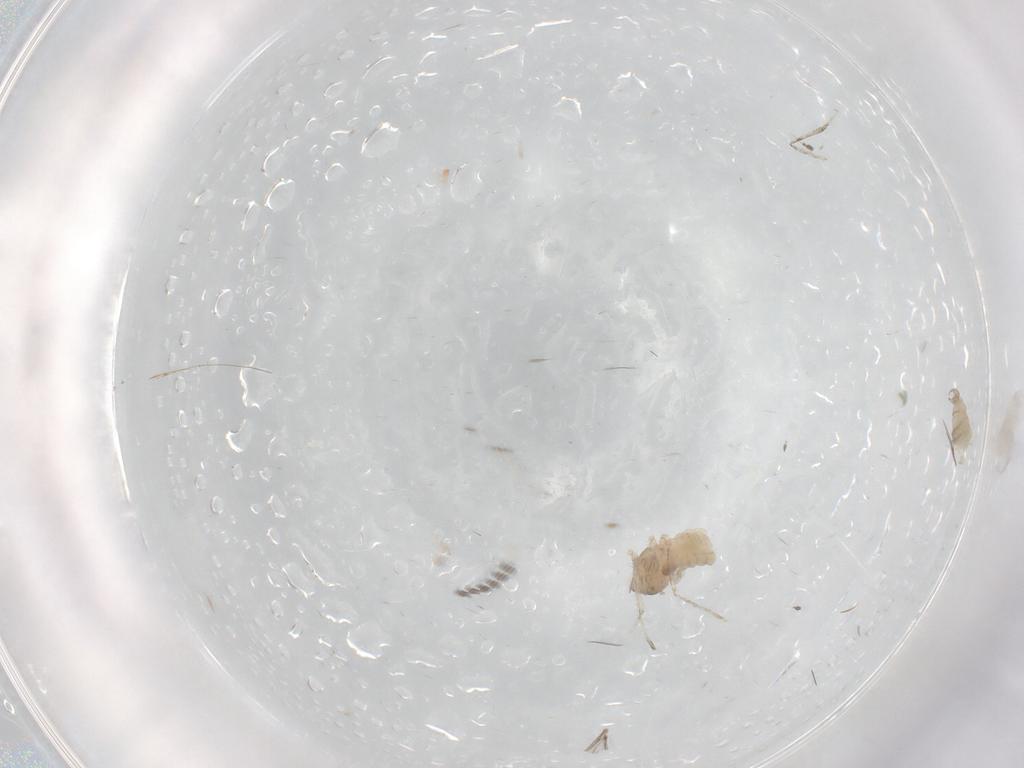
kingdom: Animalia
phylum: Arthropoda
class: Insecta
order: Diptera
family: Cecidomyiidae
